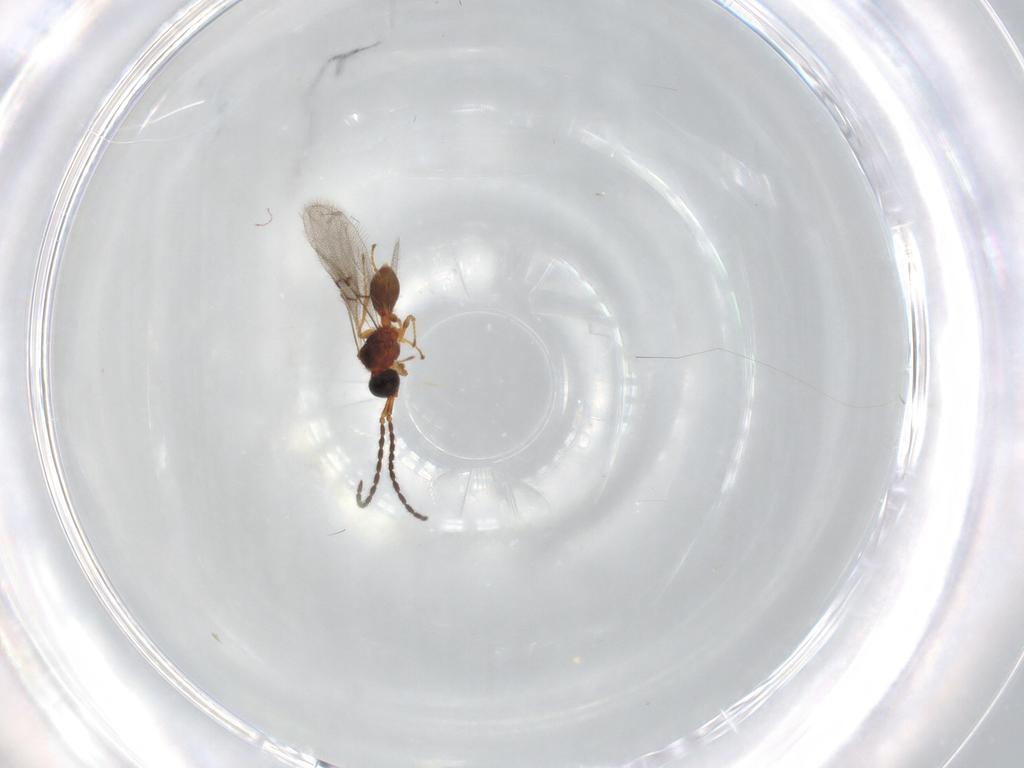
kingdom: Animalia
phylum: Arthropoda
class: Insecta
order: Hymenoptera
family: Diapriidae
